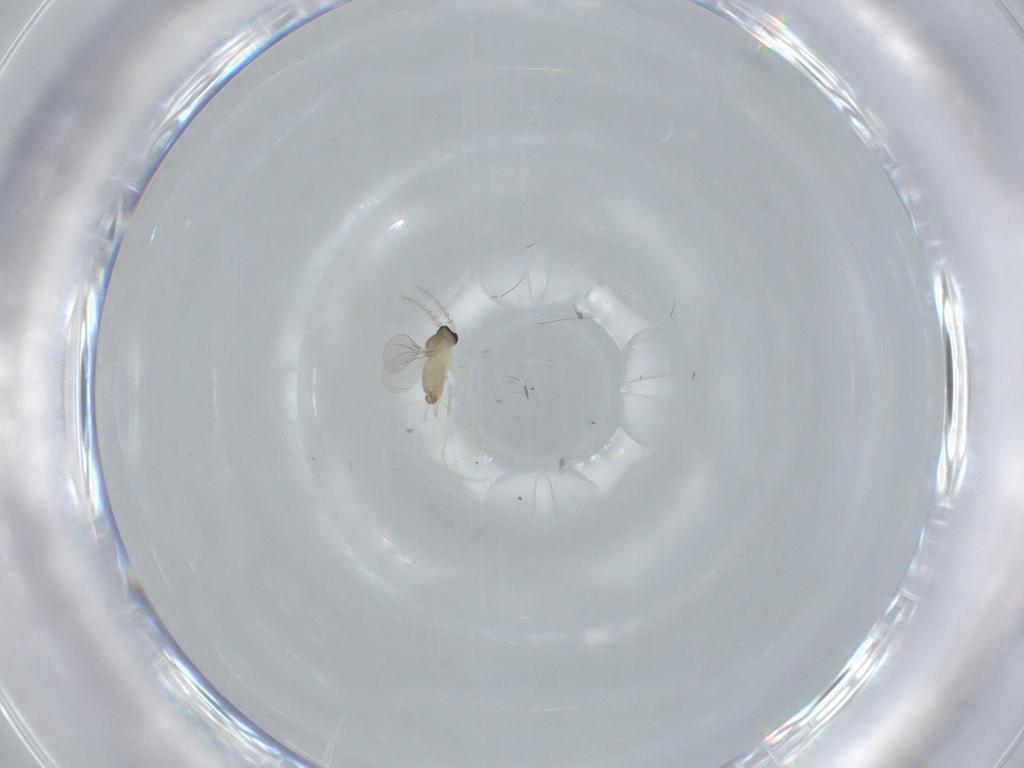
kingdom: Animalia
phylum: Arthropoda
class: Insecta
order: Diptera
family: Cecidomyiidae
